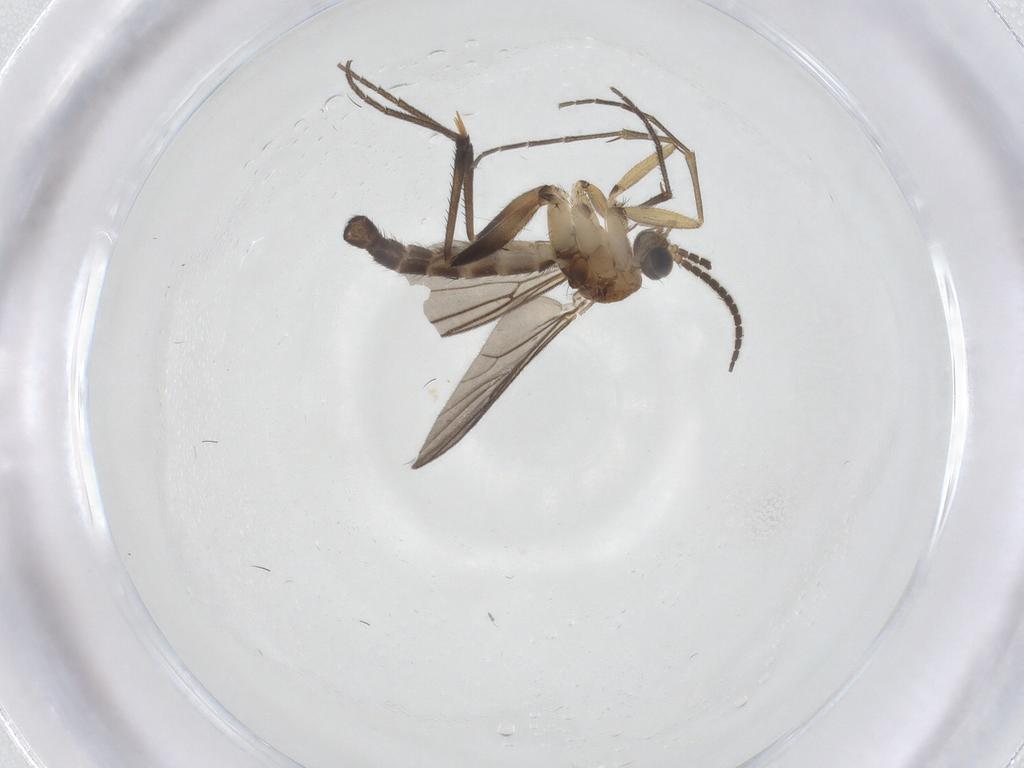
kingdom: Animalia
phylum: Arthropoda
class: Insecta
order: Diptera
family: Mycetophilidae
